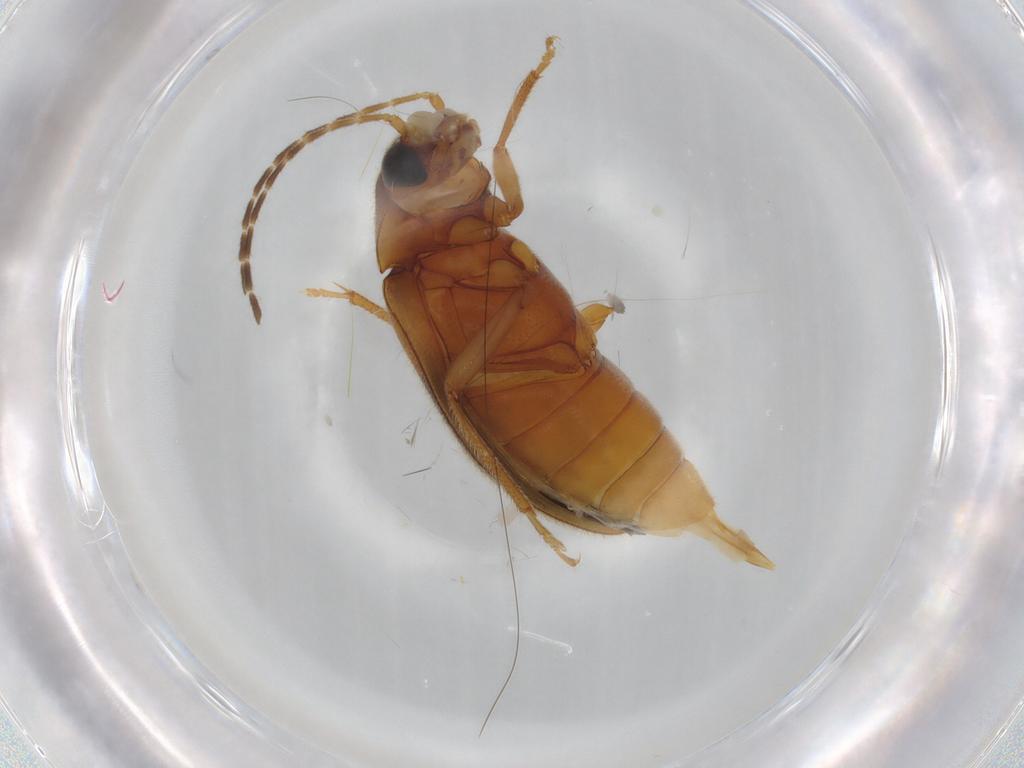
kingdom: Animalia
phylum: Arthropoda
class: Insecta
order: Coleoptera
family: Ptilodactylidae
